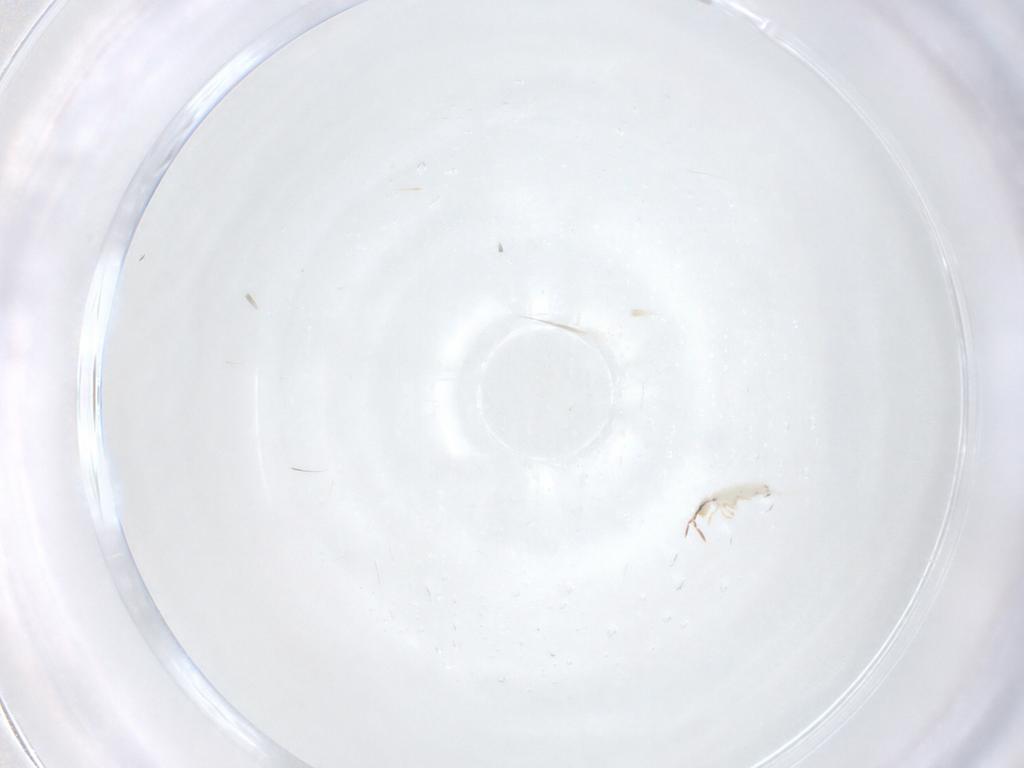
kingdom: Animalia
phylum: Arthropoda
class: Collembola
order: Entomobryomorpha
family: Entomobryidae
